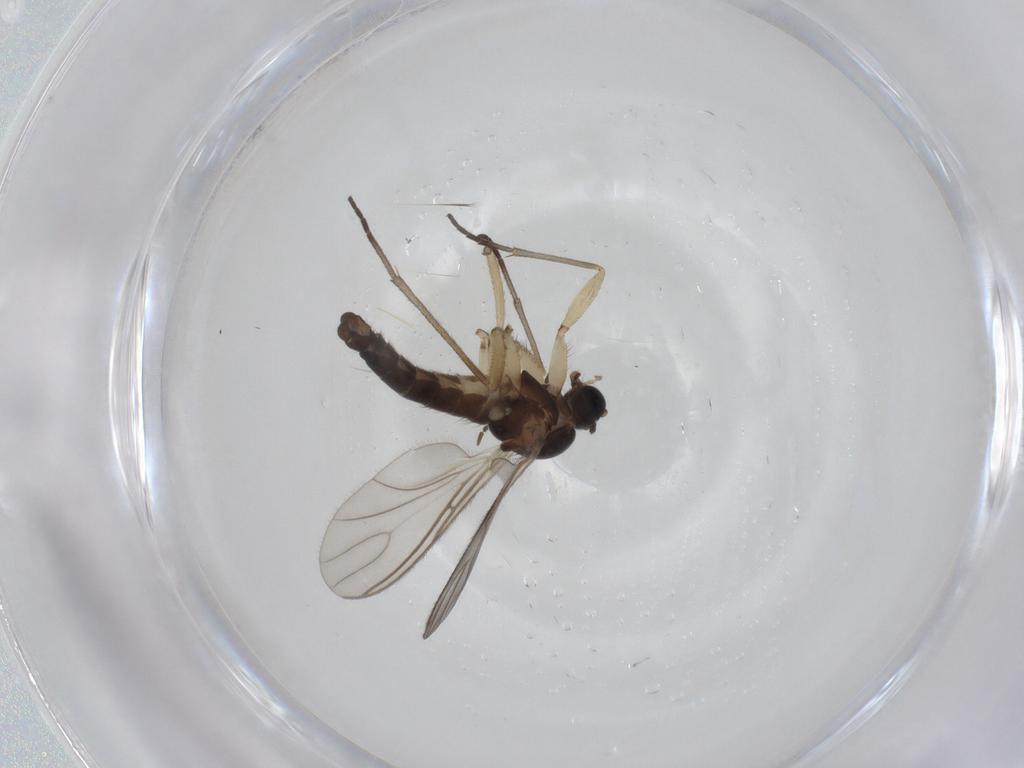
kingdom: Animalia
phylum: Arthropoda
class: Insecta
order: Diptera
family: Sciaridae
